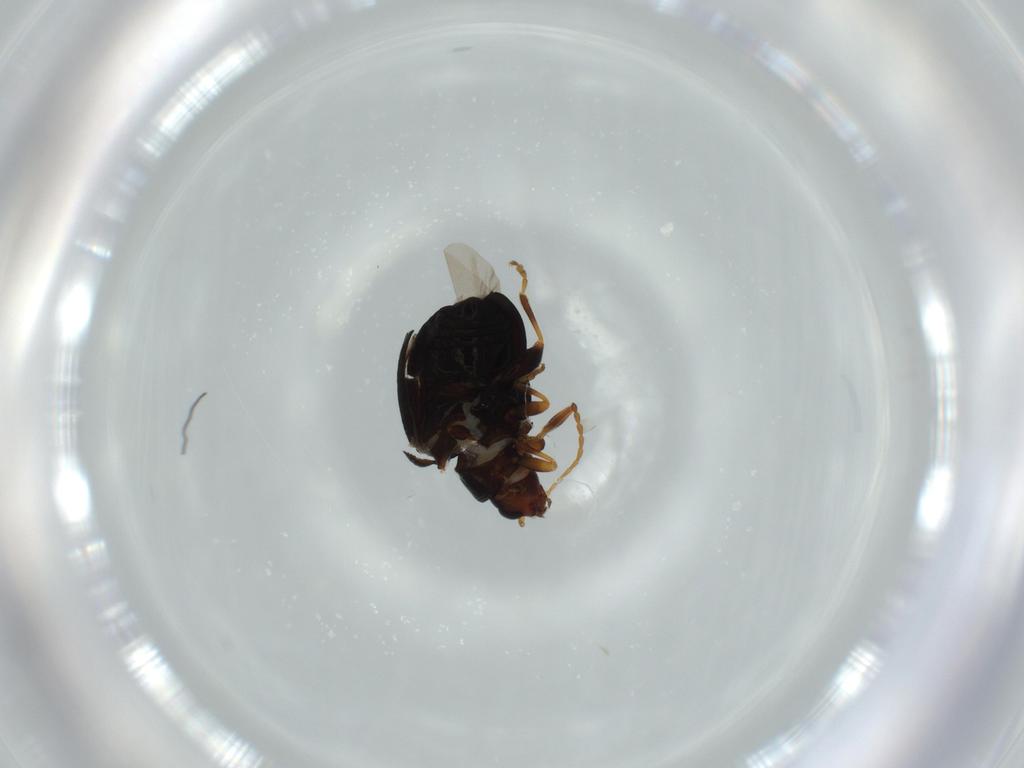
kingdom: Animalia
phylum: Arthropoda
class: Insecta
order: Coleoptera
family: Chrysomelidae
